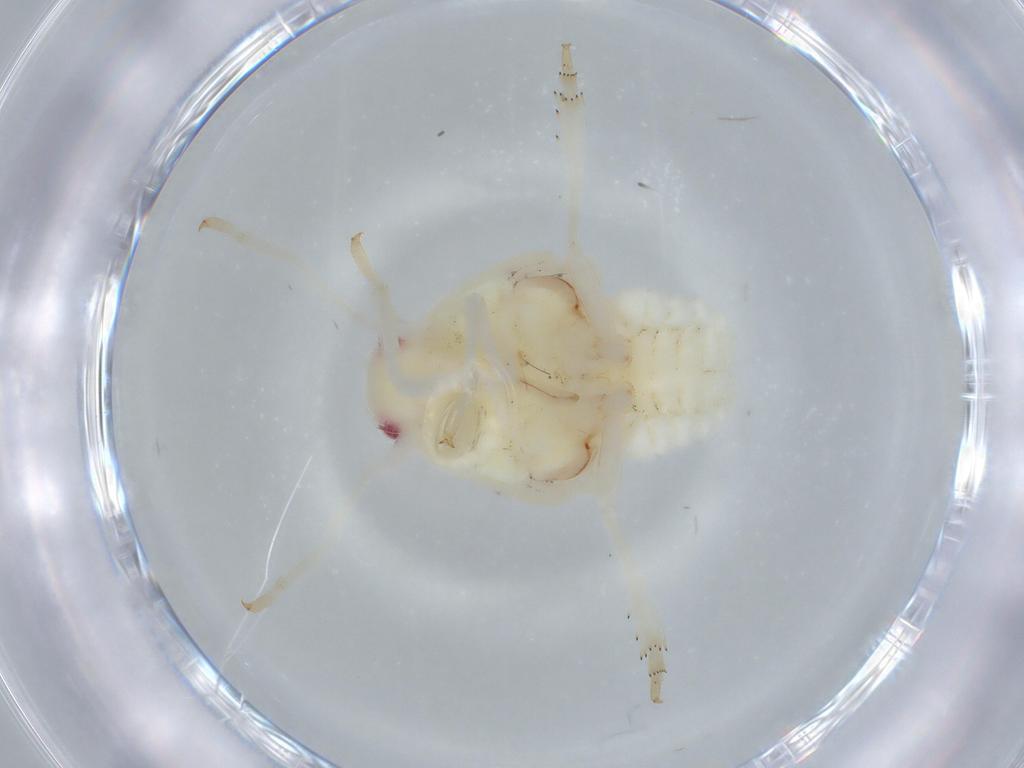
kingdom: Animalia
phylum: Arthropoda
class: Insecta
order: Hemiptera
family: Flatidae
